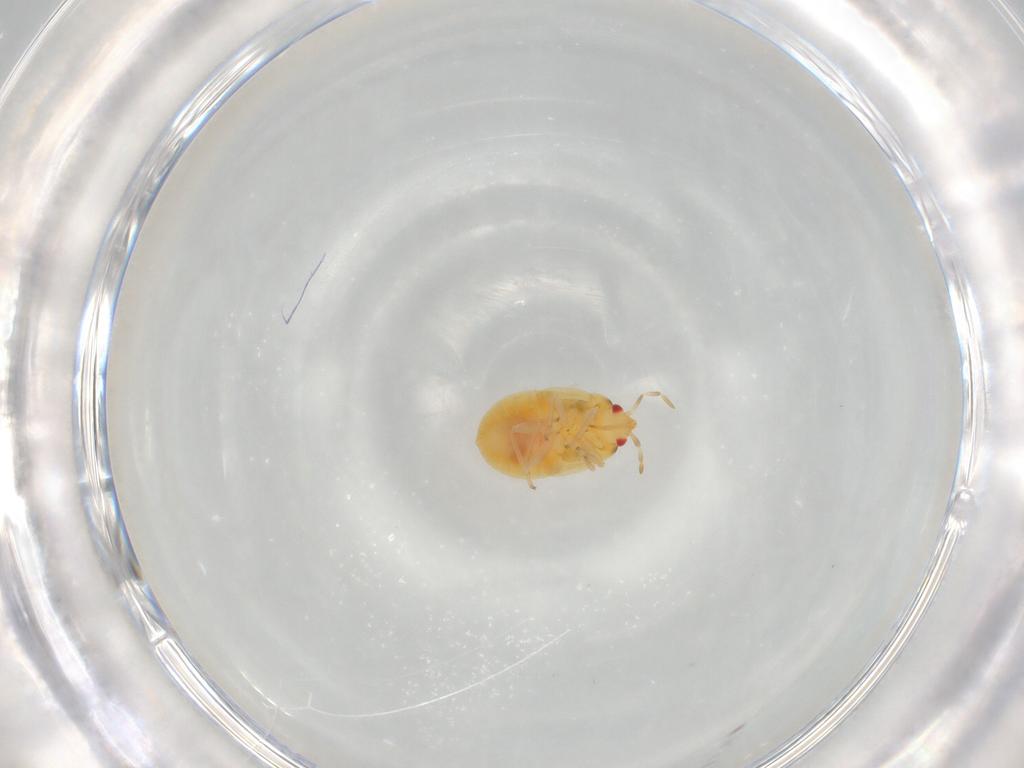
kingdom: Animalia
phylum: Arthropoda
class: Insecta
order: Hemiptera
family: Anthocoridae
